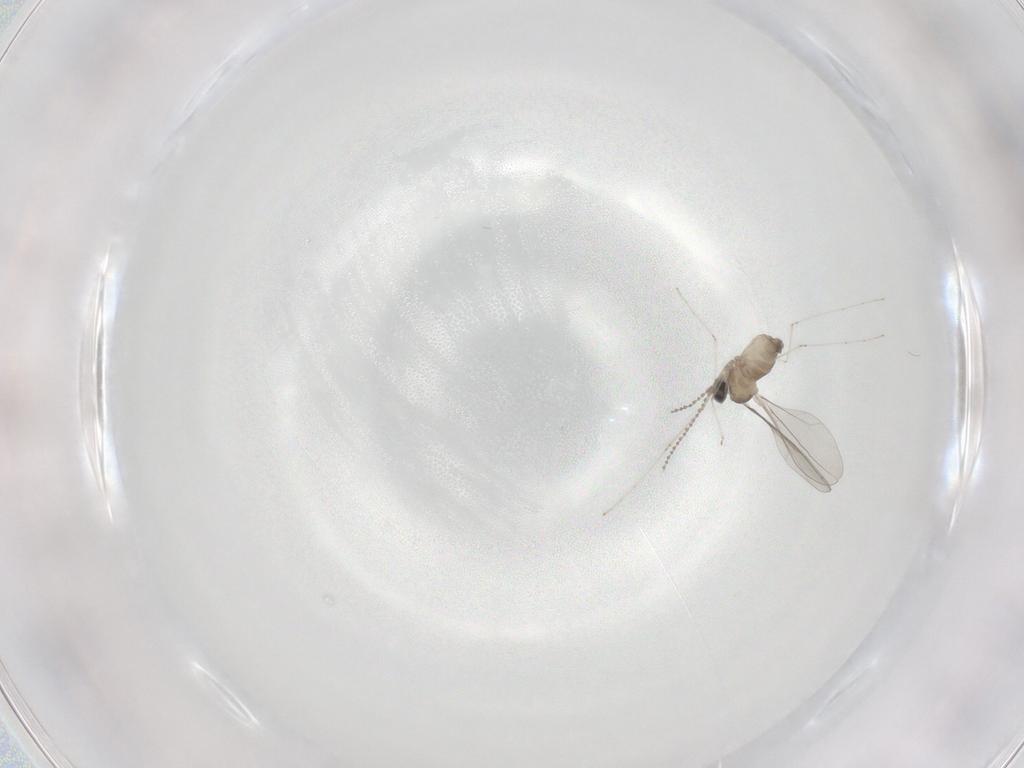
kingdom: Animalia
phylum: Arthropoda
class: Insecta
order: Diptera
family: Cecidomyiidae
